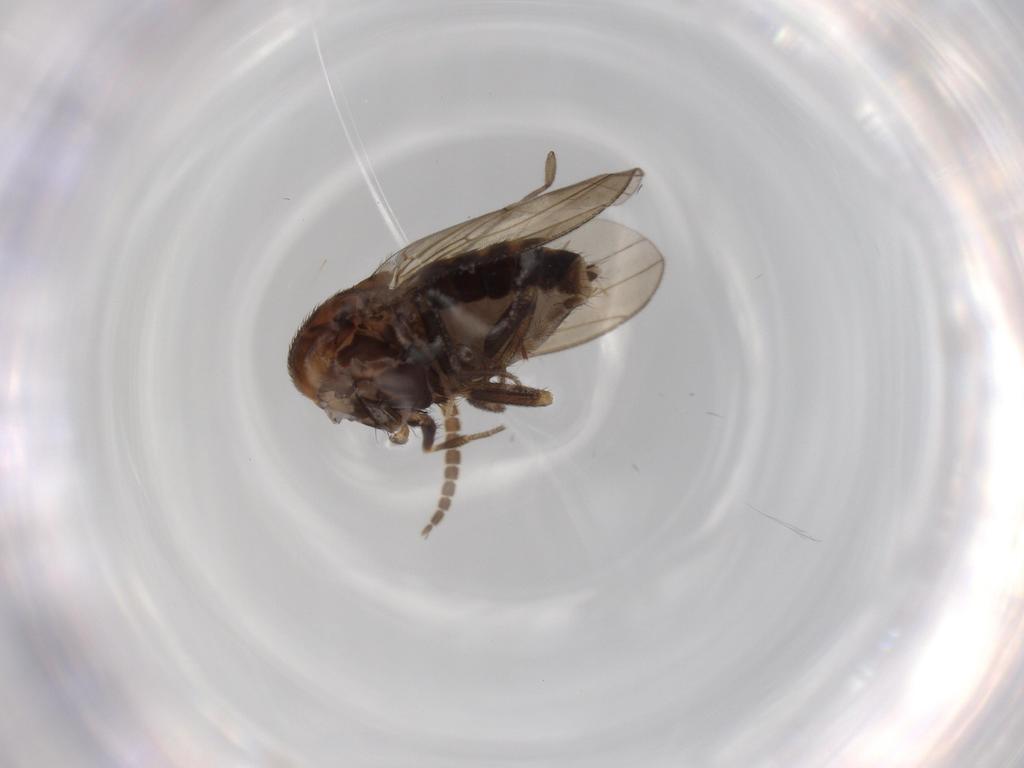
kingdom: Animalia
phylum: Arthropoda
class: Insecta
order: Diptera
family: Drosophilidae
